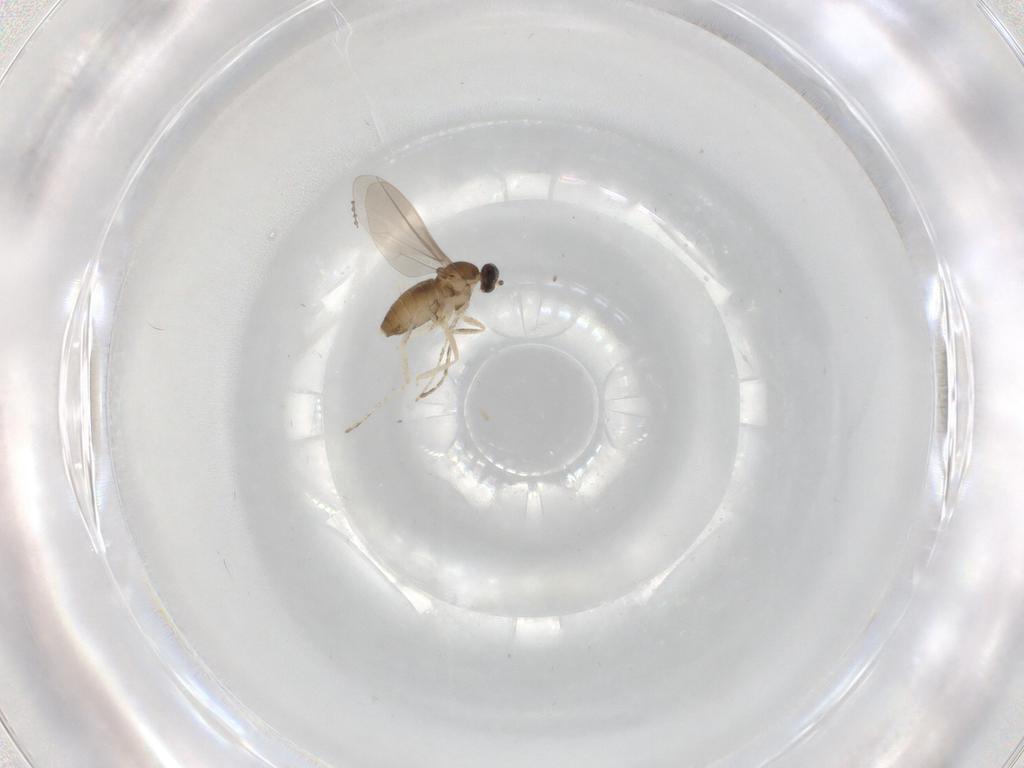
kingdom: Animalia
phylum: Arthropoda
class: Insecta
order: Diptera
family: Cecidomyiidae
